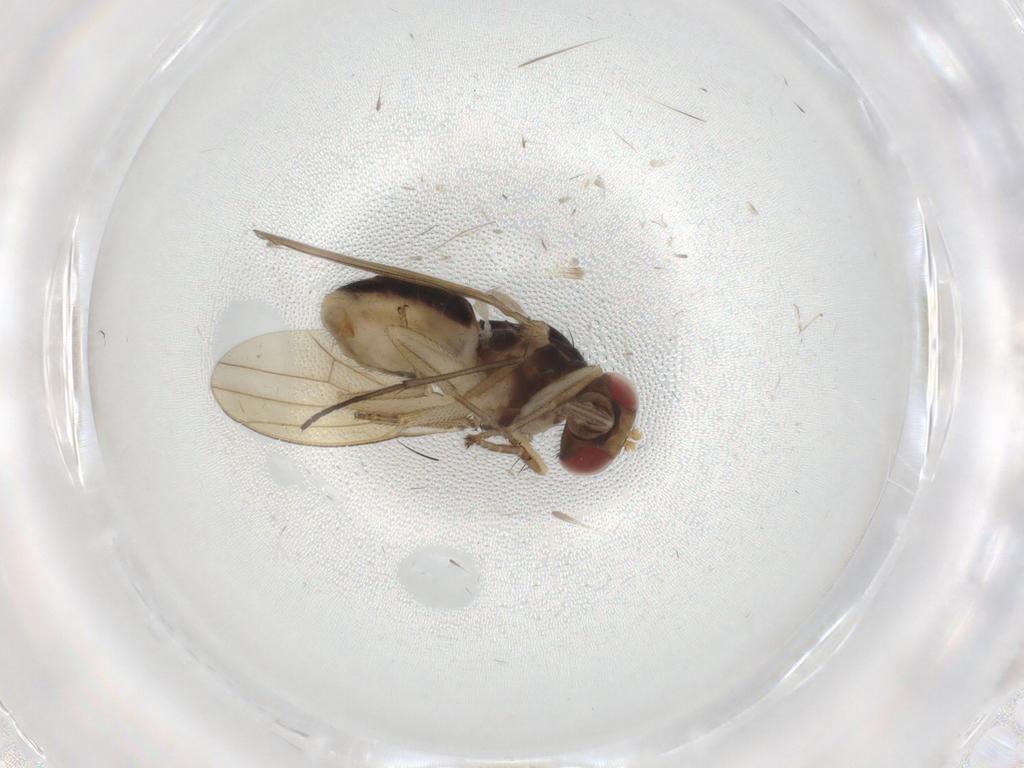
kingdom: Animalia
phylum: Arthropoda
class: Insecta
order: Diptera
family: Lauxaniidae
